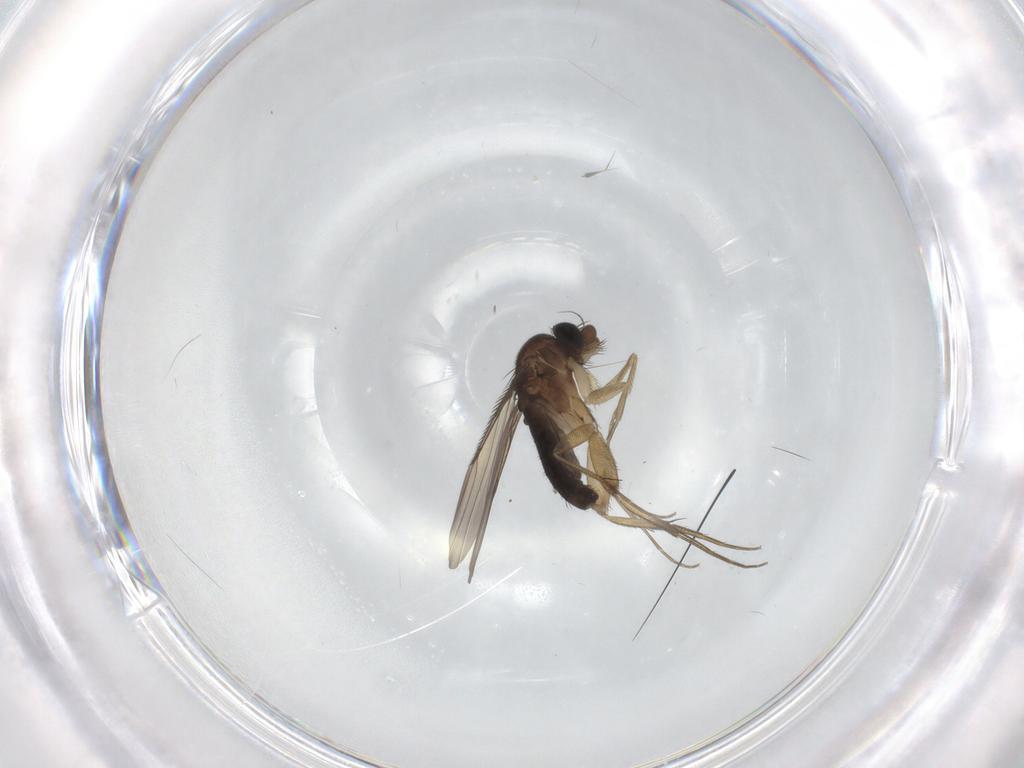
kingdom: Animalia
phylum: Arthropoda
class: Insecta
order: Diptera
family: Phoridae
